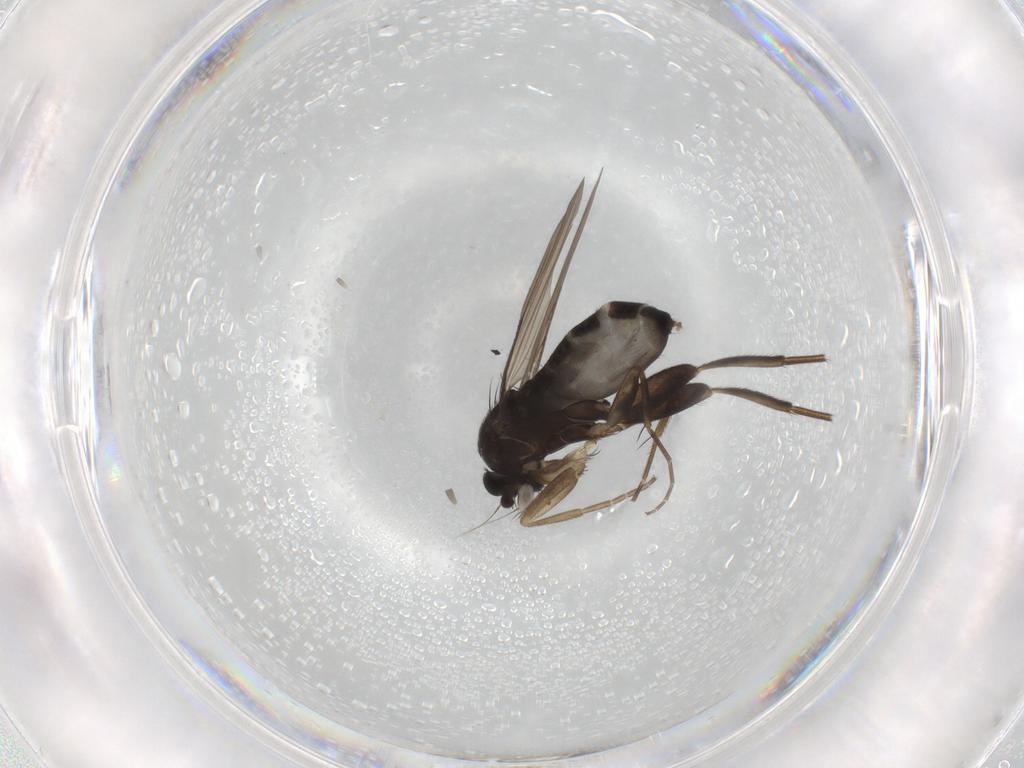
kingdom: Animalia
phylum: Arthropoda
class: Insecta
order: Diptera
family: Phoridae
